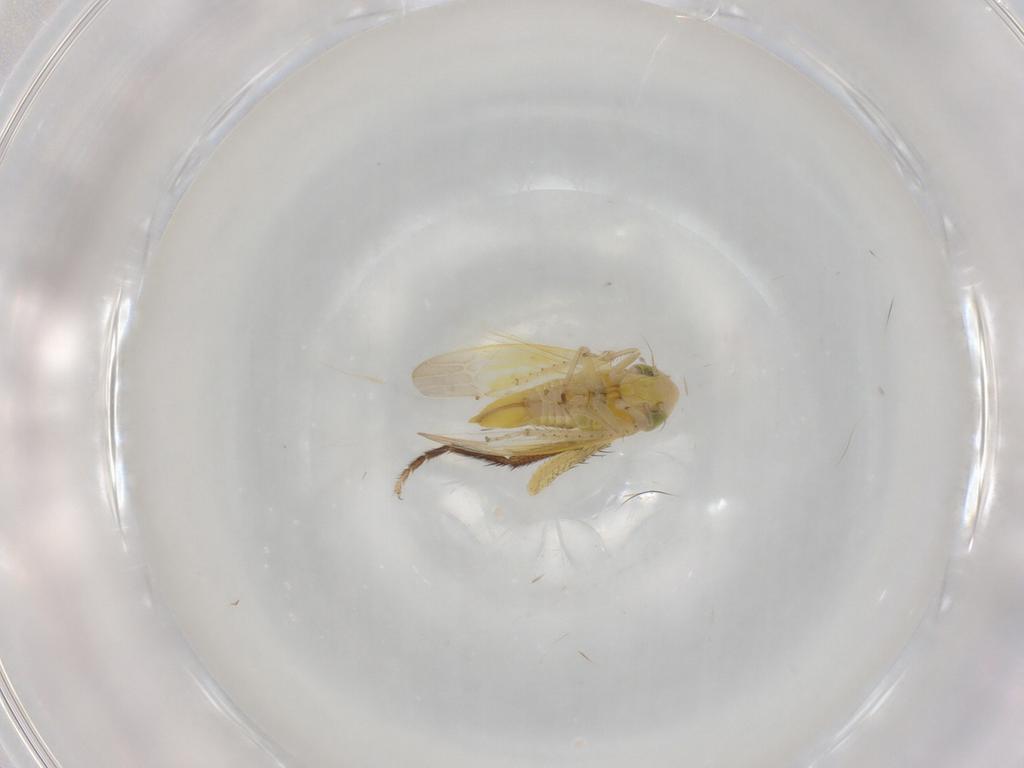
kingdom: Animalia
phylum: Arthropoda
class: Insecta
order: Hemiptera
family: Cicadellidae
